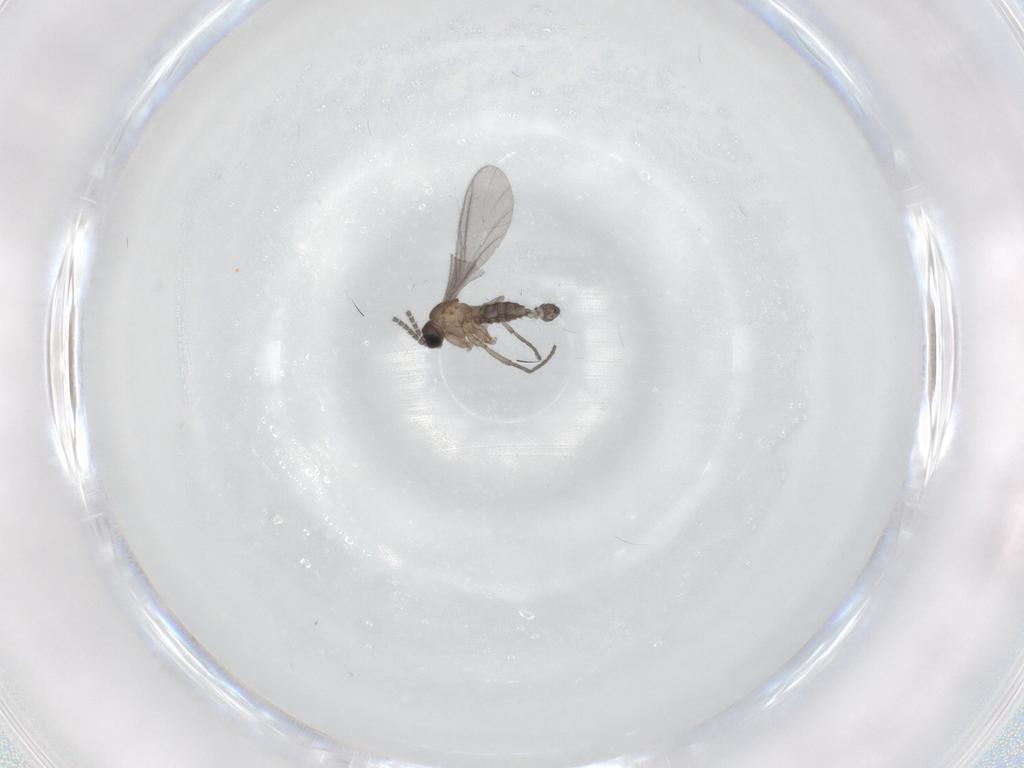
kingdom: Animalia
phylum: Arthropoda
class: Insecta
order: Diptera
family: Sciaridae
